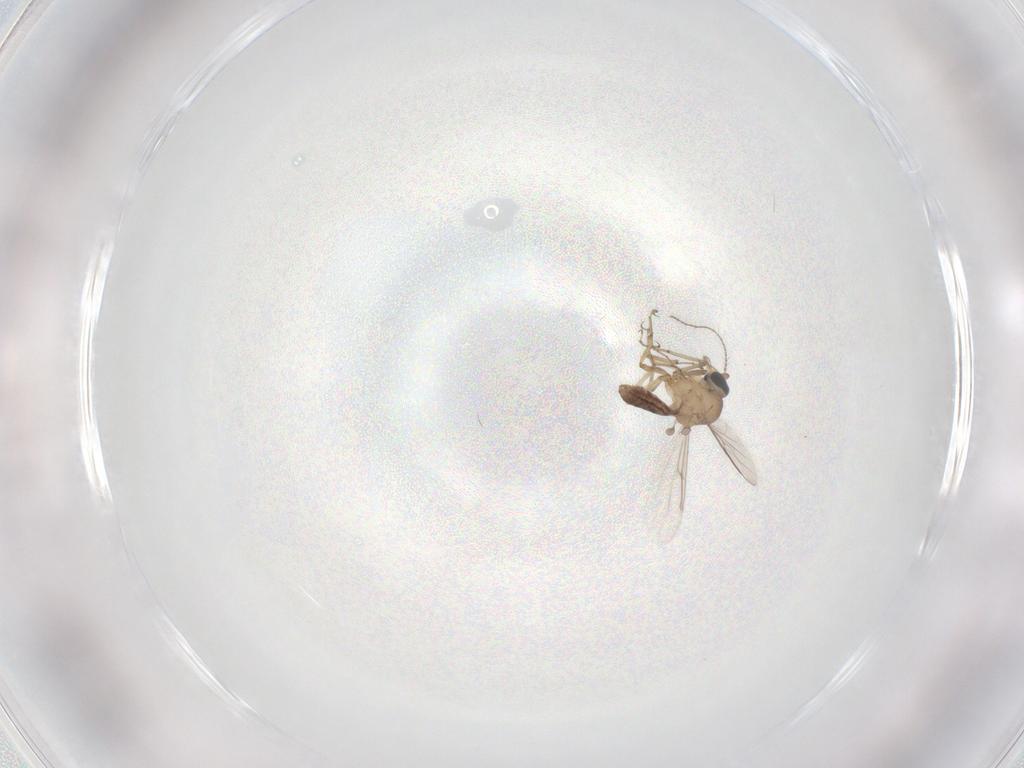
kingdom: Animalia
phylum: Arthropoda
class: Insecta
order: Diptera
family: Ceratopogonidae
